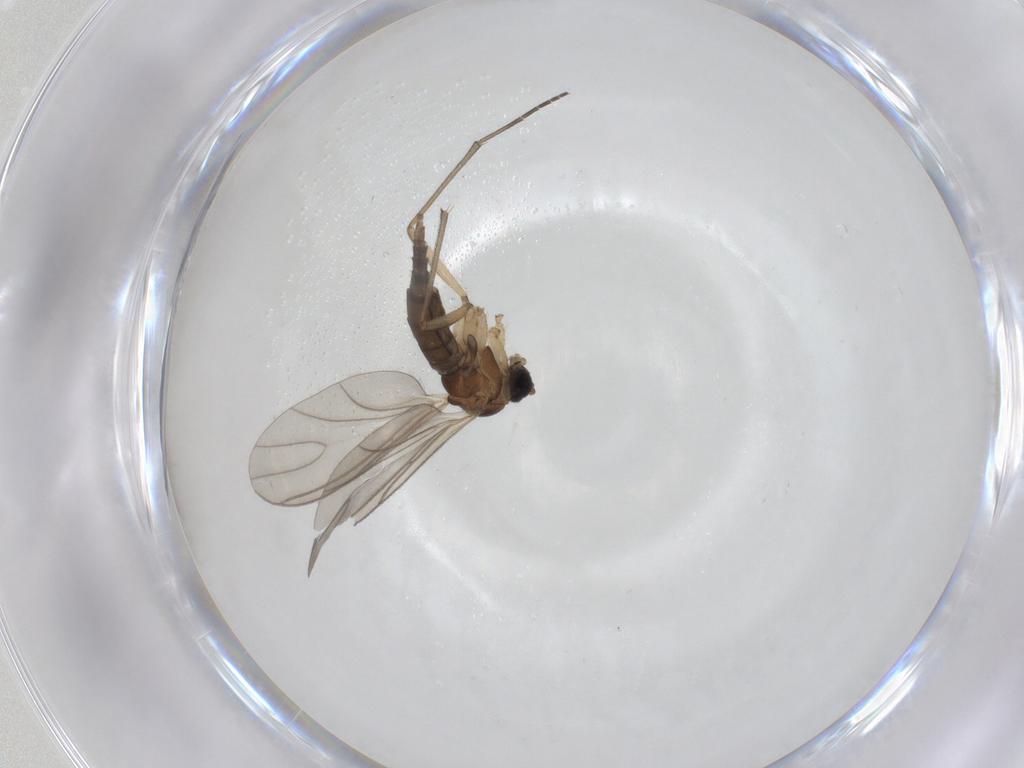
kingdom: Animalia
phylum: Arthropoda
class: Insecta
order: Diptera
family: Sciaridae
